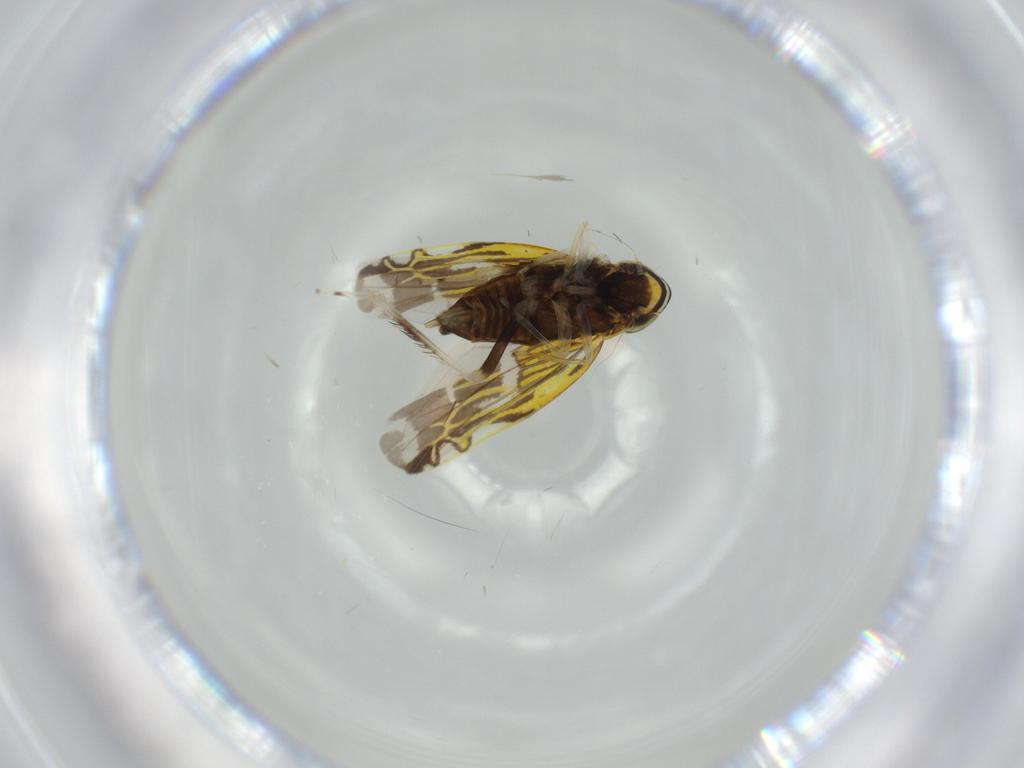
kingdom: Animalia
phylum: Arthropoda
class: Insecta
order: Hemiptera
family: Cicadellidae
